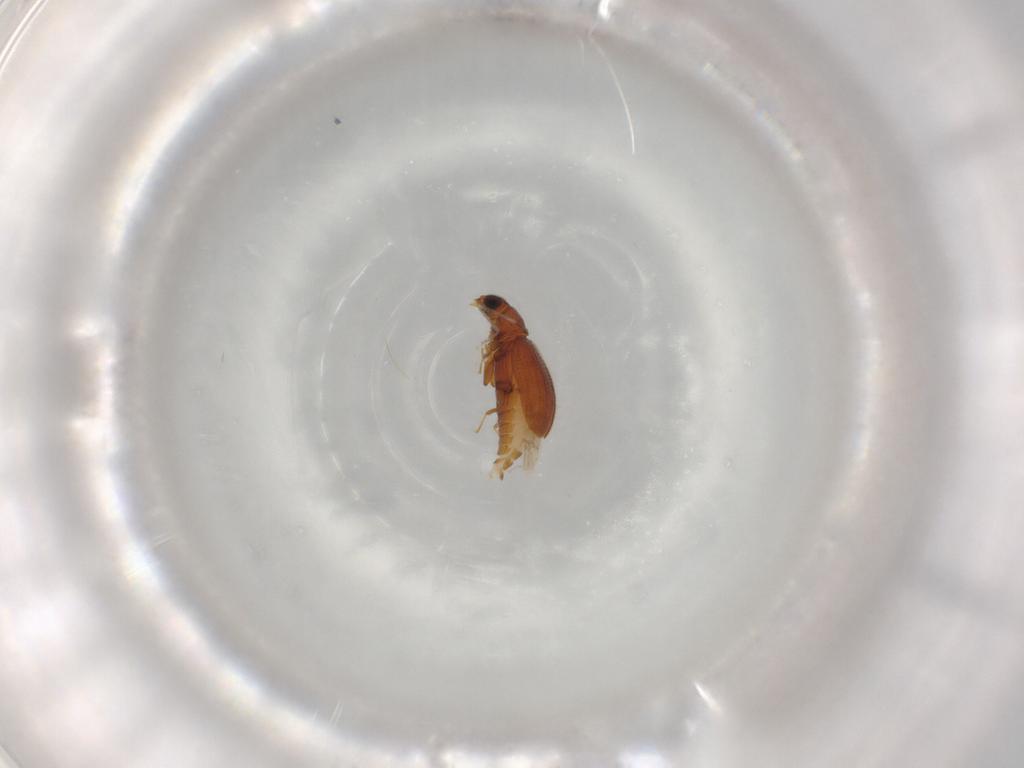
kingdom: Animalia
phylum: Arthropoda
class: Insecta
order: Coleoptera
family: Latridiidae
